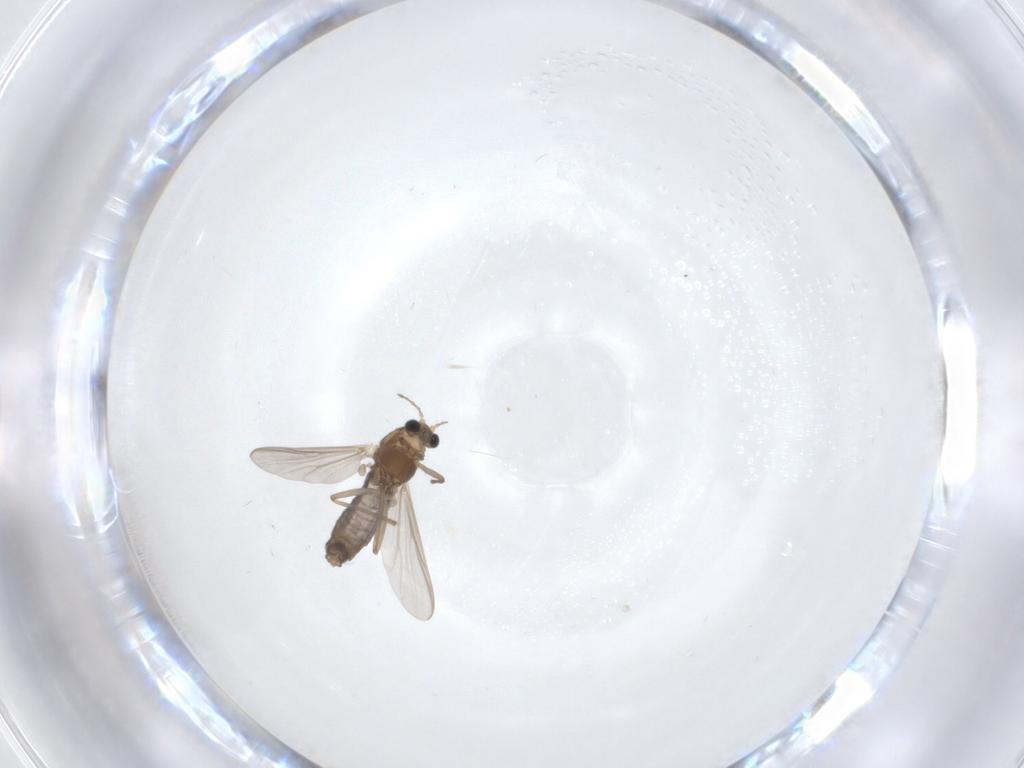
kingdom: Animalia
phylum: Arthropoda
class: Insecta
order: Diptera
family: Chironomidae
